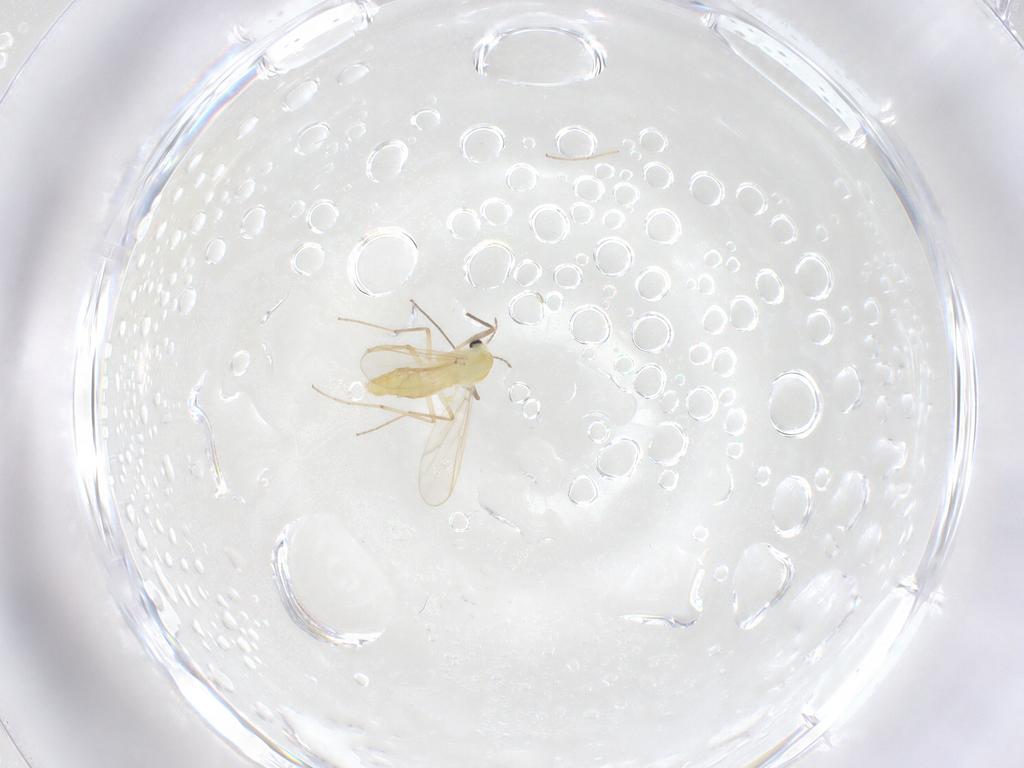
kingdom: Animalia
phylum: Arthropoda
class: Insecta
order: Diptera
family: Chironomidae
